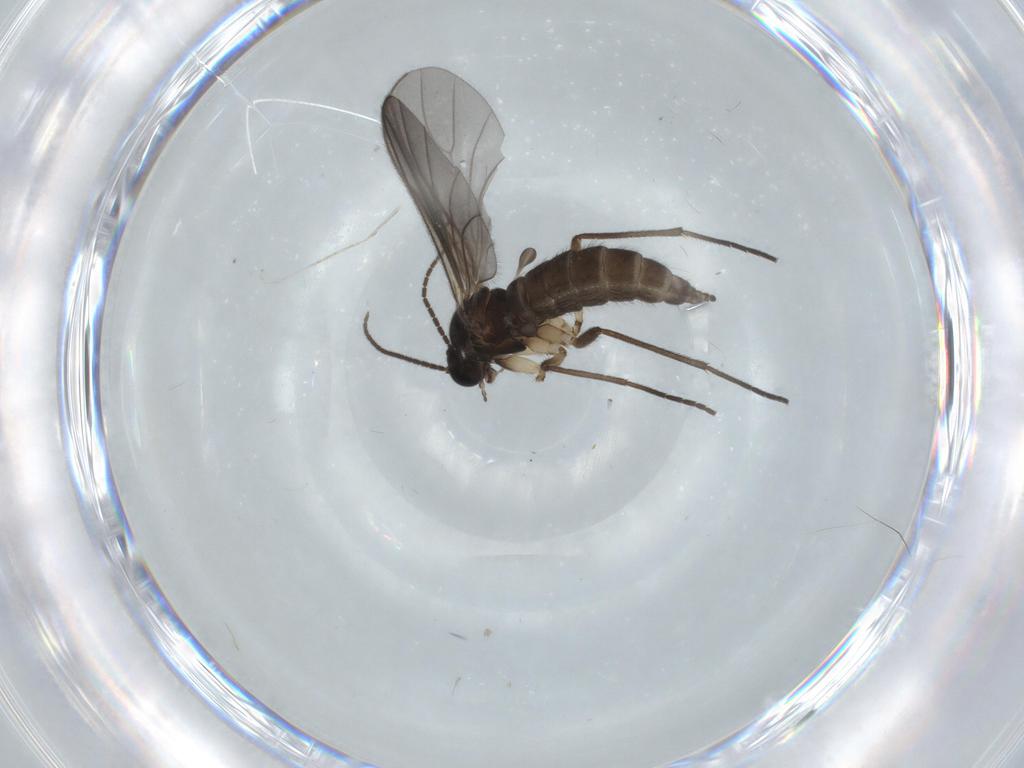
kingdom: Animalia
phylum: Arthropoda
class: Insecta
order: Diptera
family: Sciaridae
